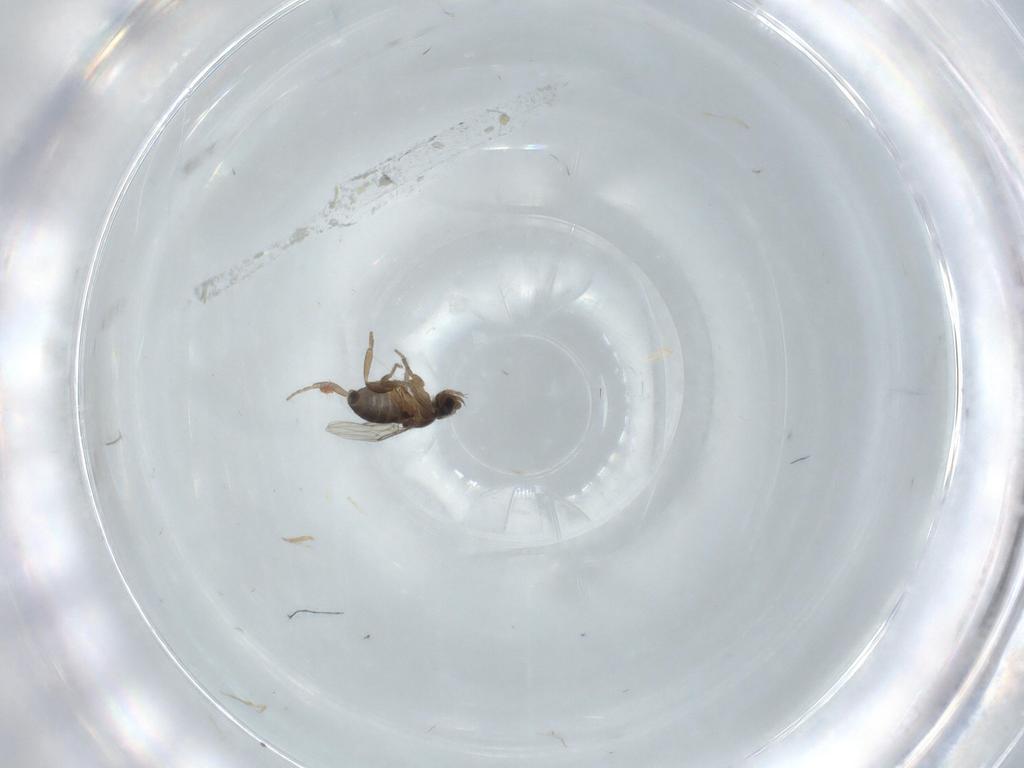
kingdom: Animalia
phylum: Arthropoda
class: Insecta
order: Diptera
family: Phoridae
